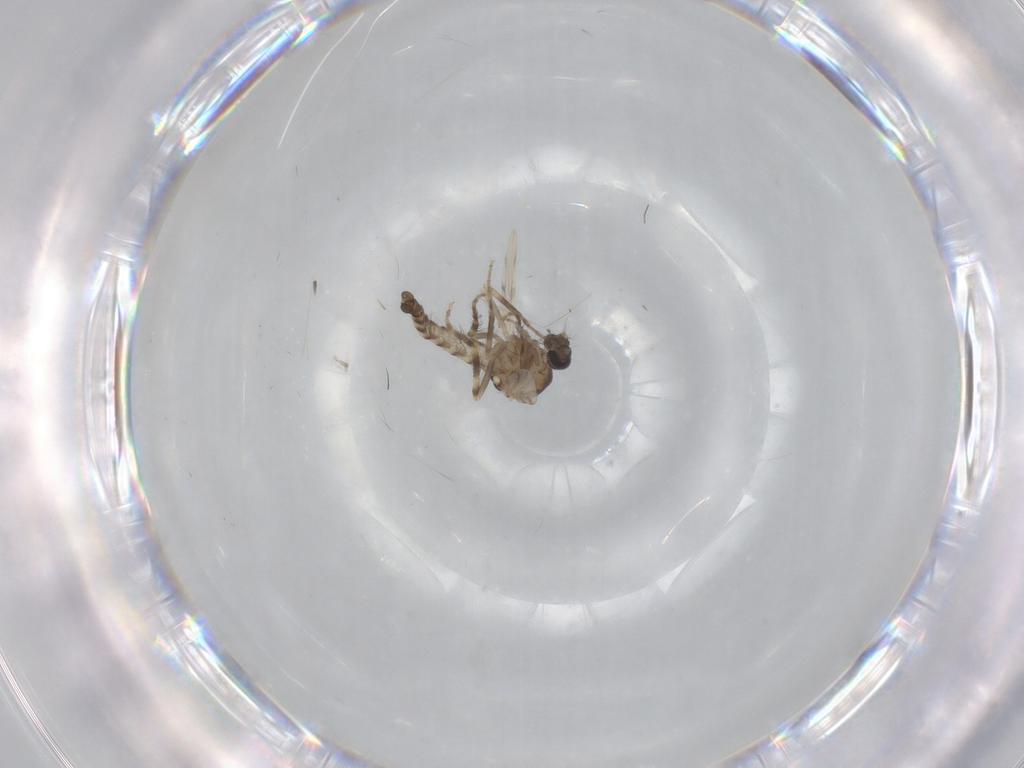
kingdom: Animalia
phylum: Arthropoda
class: Insecta
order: Diptera
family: Ceratopogonidae
